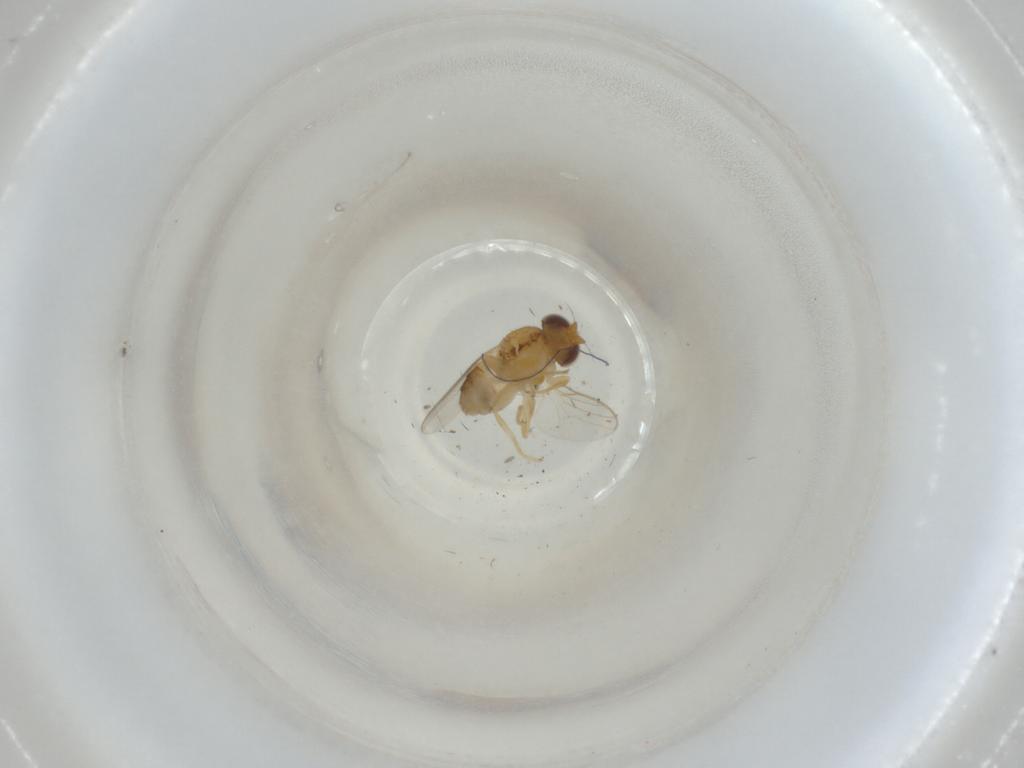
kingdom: Animalia
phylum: Arthropoda
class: Insecta
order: Diptera
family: Chloropidae
